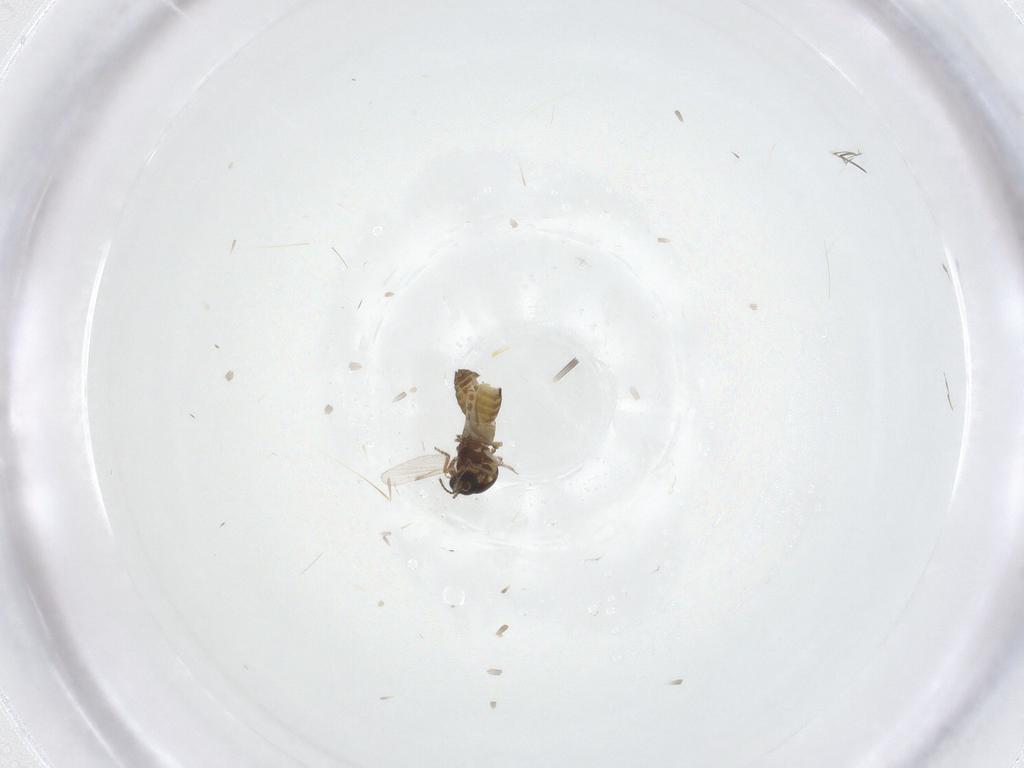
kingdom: Animalia
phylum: Arthropoda
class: Insecta
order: Diptera
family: Ceratopogonidae
